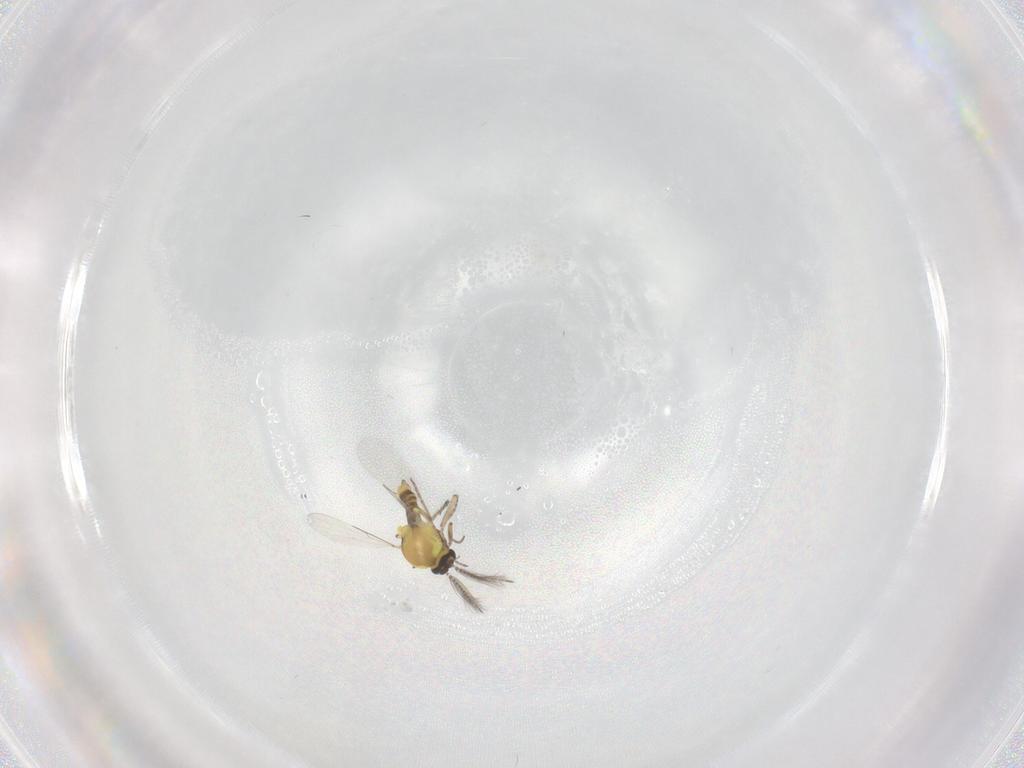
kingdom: Animalia
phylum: Arthropoda
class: Insecta
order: Diptera
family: Ceratopogonidae
